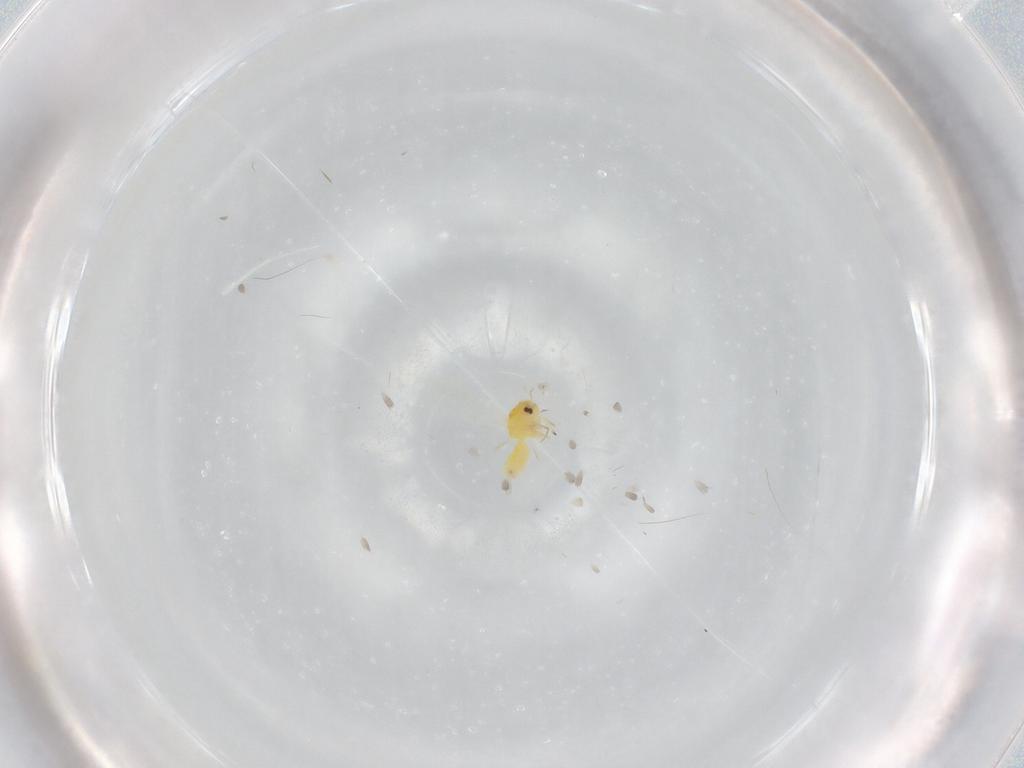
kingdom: Animalia
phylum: Arthropoda
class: Insecta
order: Hemiptera
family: Aleyrodidae
